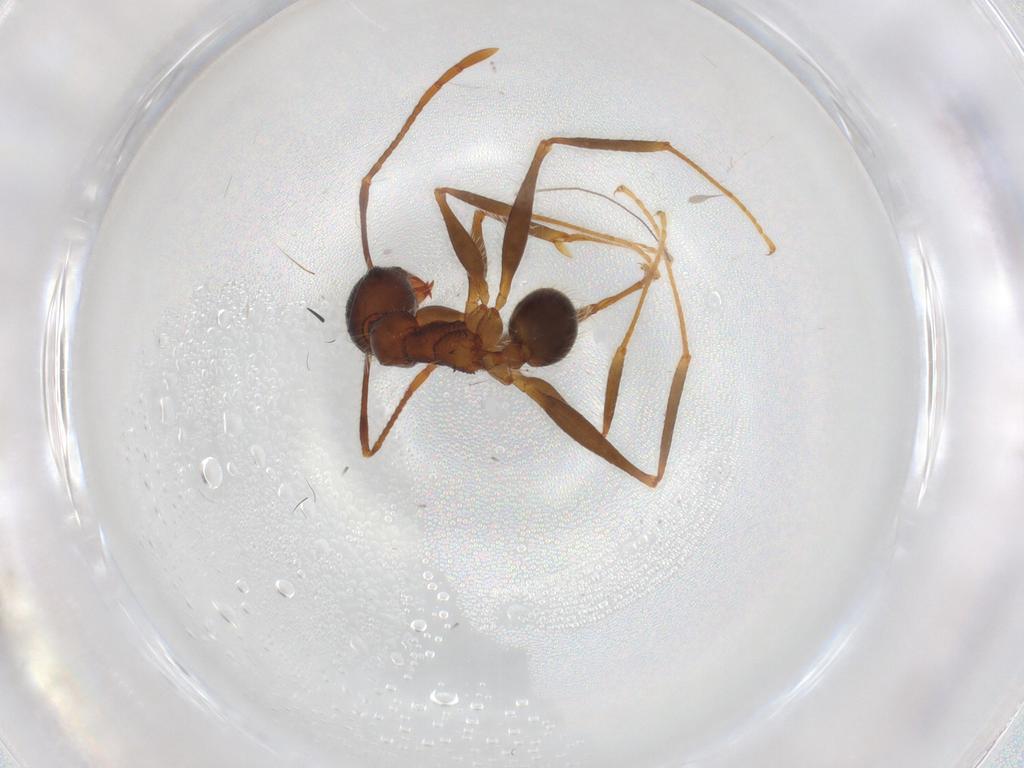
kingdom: Animalia
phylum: Arthropoda
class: Insecta
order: Hymenoptera
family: Formicidae
